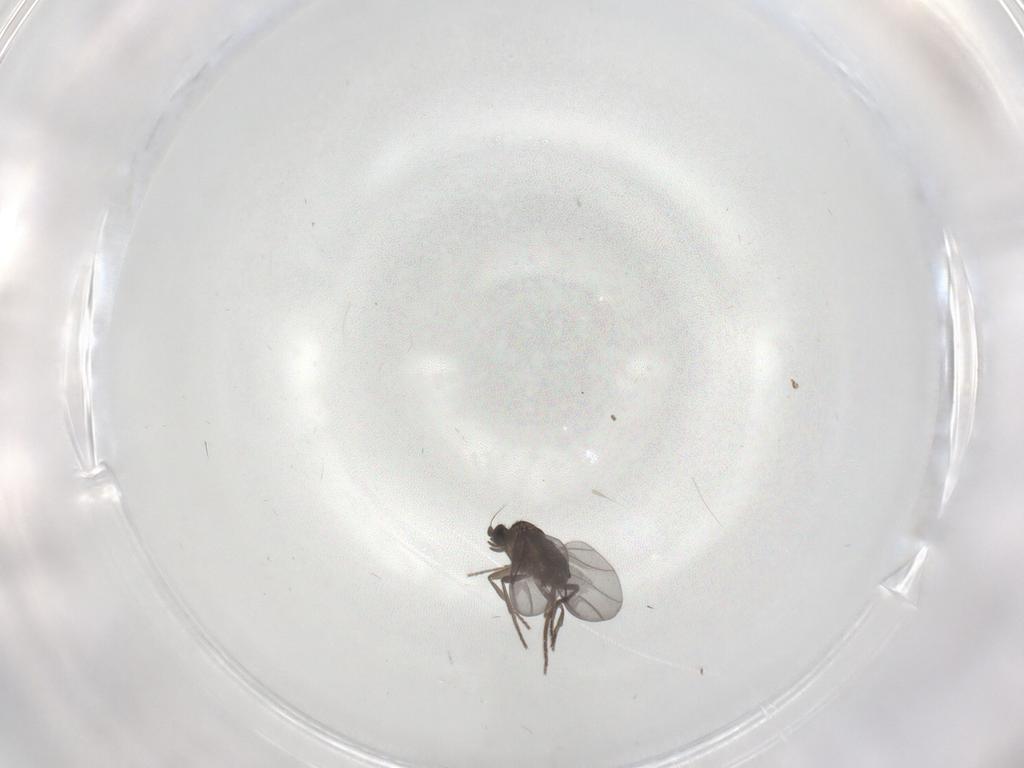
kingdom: Animalia
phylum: Arthropoda
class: Insecta
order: Diptera
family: Phoridae
